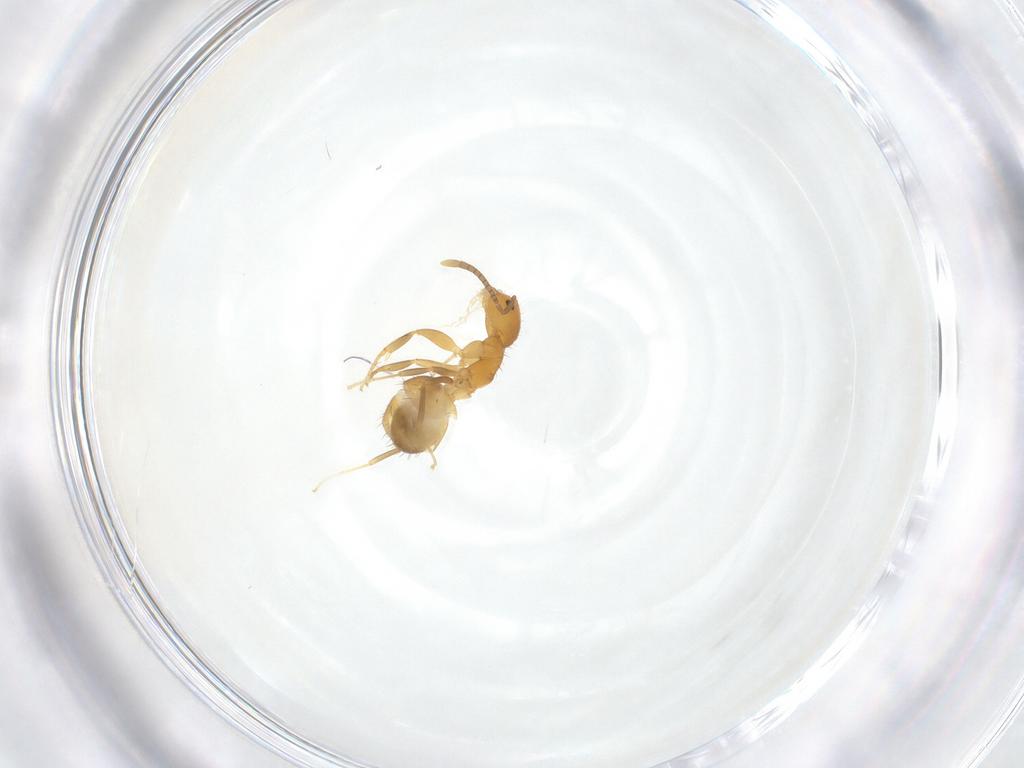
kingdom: Animalia
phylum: Arthropoda
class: Insecta
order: Hymenoptera
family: Formicidae
